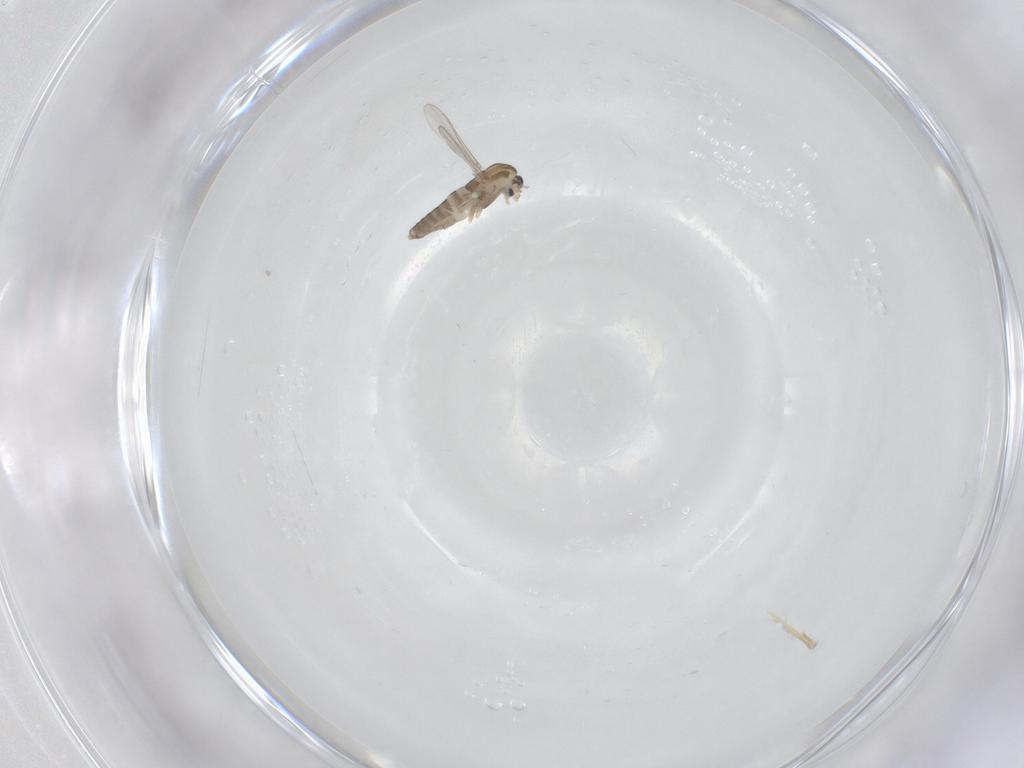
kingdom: Animalia
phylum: Arthropoda
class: Insecta
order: Diptera
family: Chironomidae
